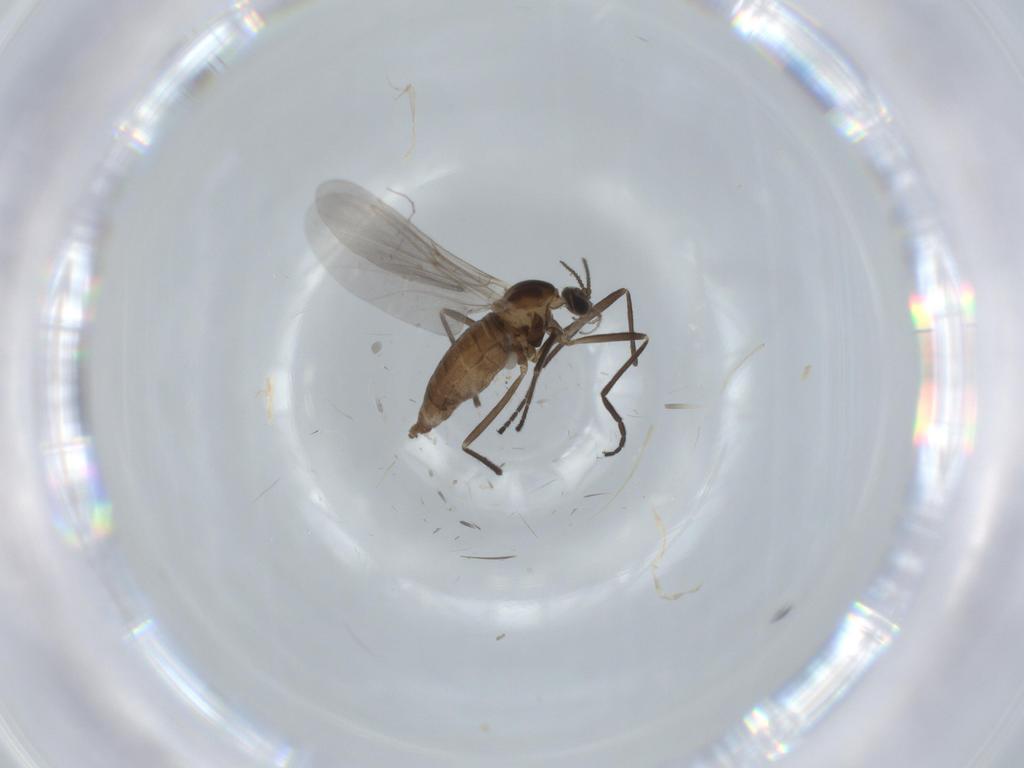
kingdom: Animalia
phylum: Arthropoda
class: Insecta
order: Diptera
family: Cecidomyiidae
